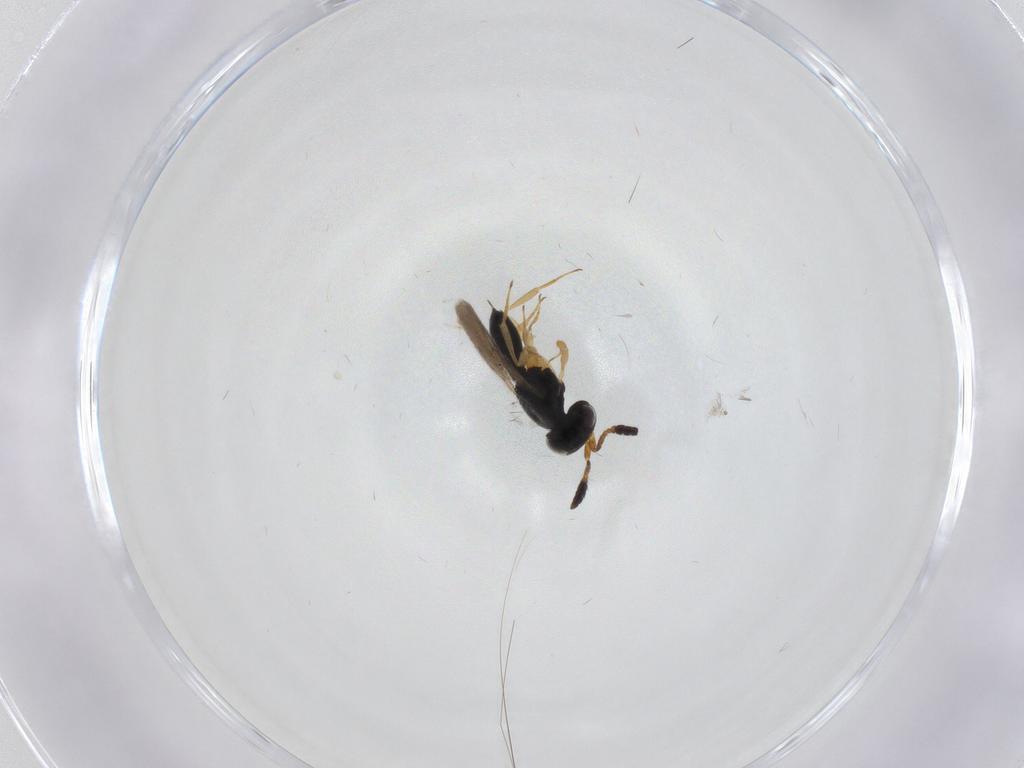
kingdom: Animalia
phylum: Arthropoda
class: Insecta
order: Hymenoptera
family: Scelionidae
